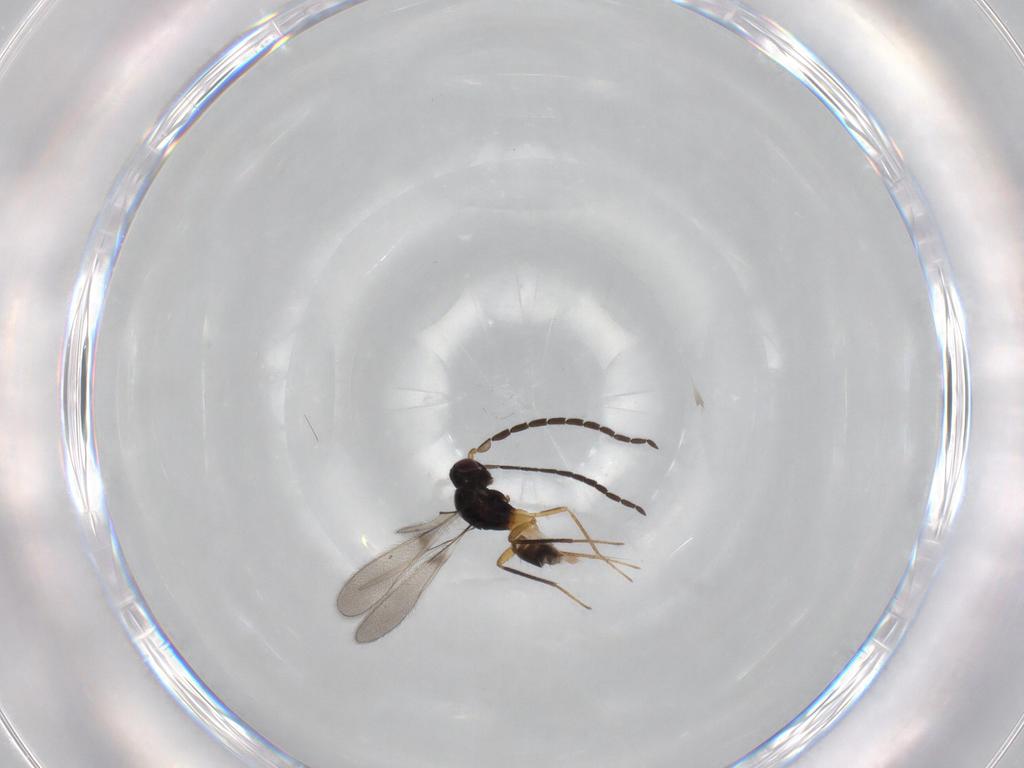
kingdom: Animalia
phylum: Arthropoda
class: Insecta
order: Hymenoptera
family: Mymaridae
